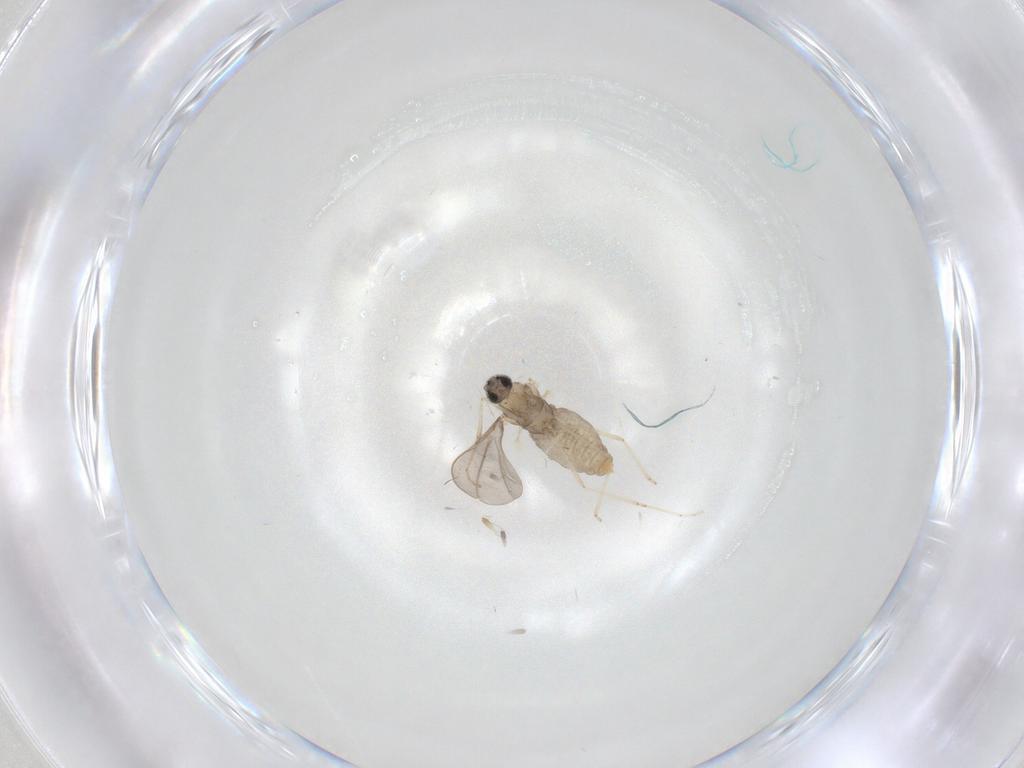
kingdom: Animalia
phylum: Arthropoda
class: Insecta
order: Diptera
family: Cecidomyiidae
